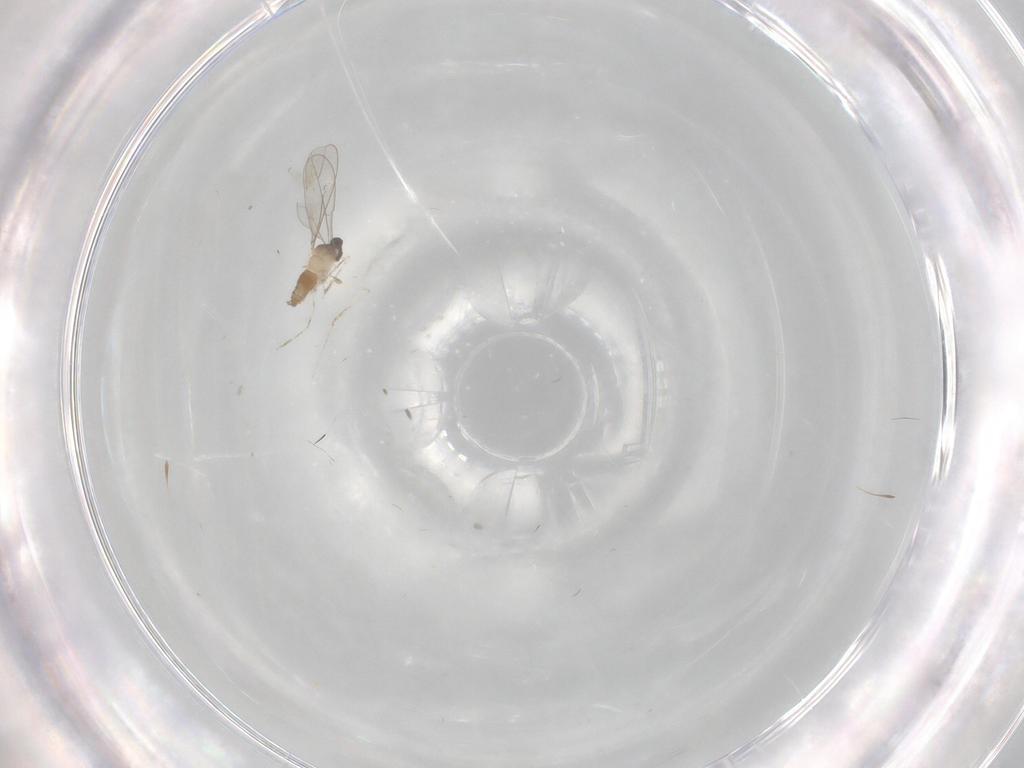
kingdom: Animalia
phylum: Arthropoda
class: Insecta
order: Diptera
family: Cecidomyiidae
